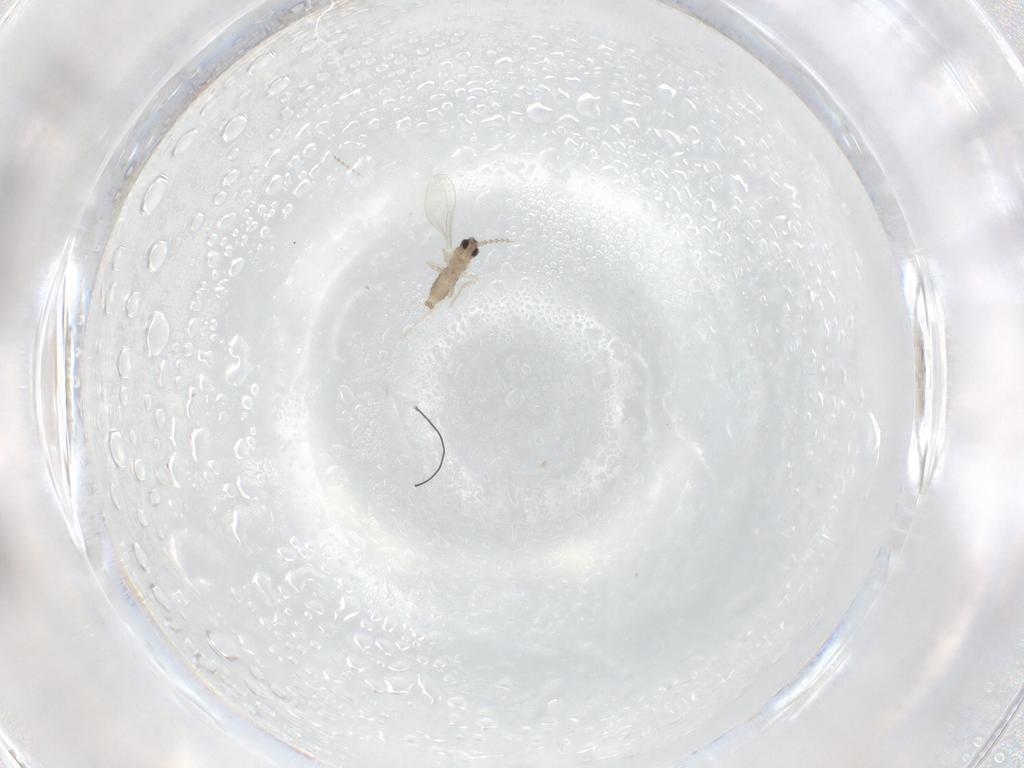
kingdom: Animalia
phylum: Arthropoda
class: Insecta
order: Diptera
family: Cecidomyiidae
